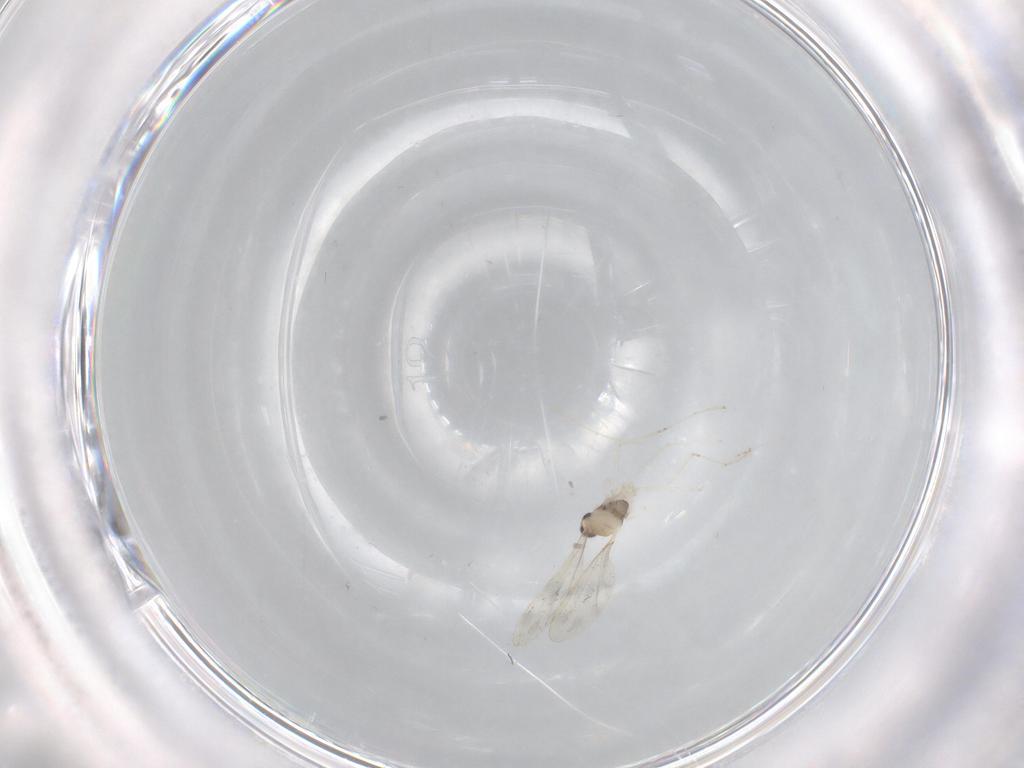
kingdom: Animalia
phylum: Arthropoda
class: Insecta
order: Diptera
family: Cecidomyiidae
